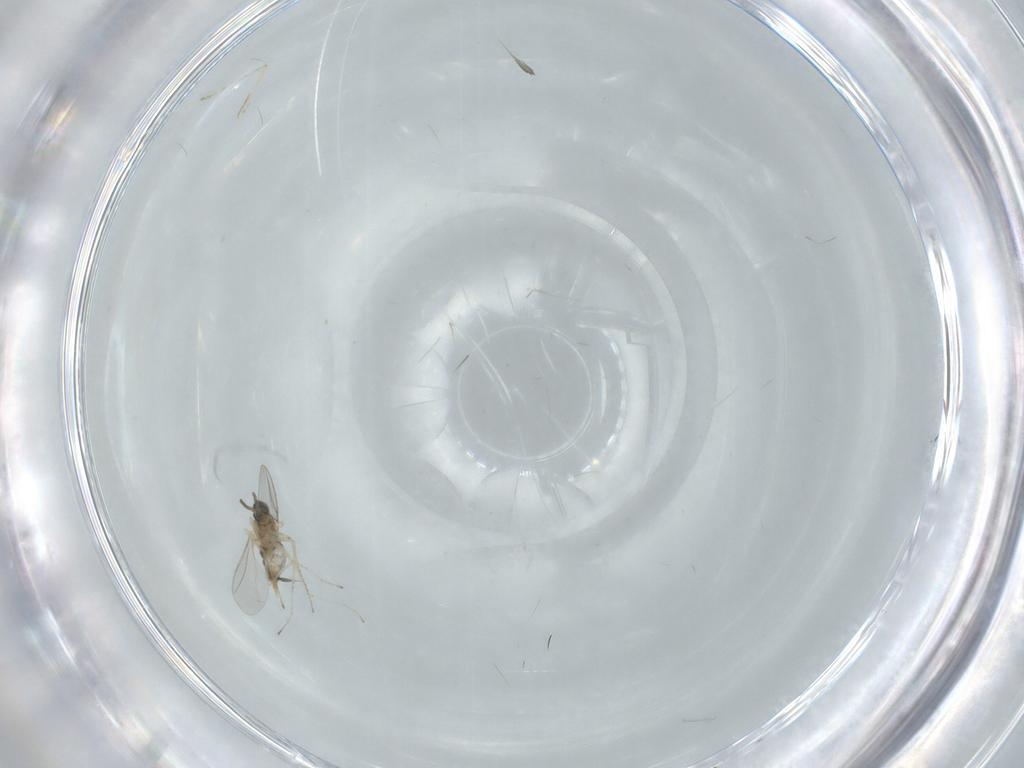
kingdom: Animalia
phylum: Arthropoda
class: Insecta
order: Diptera
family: Cecidomyiidae
